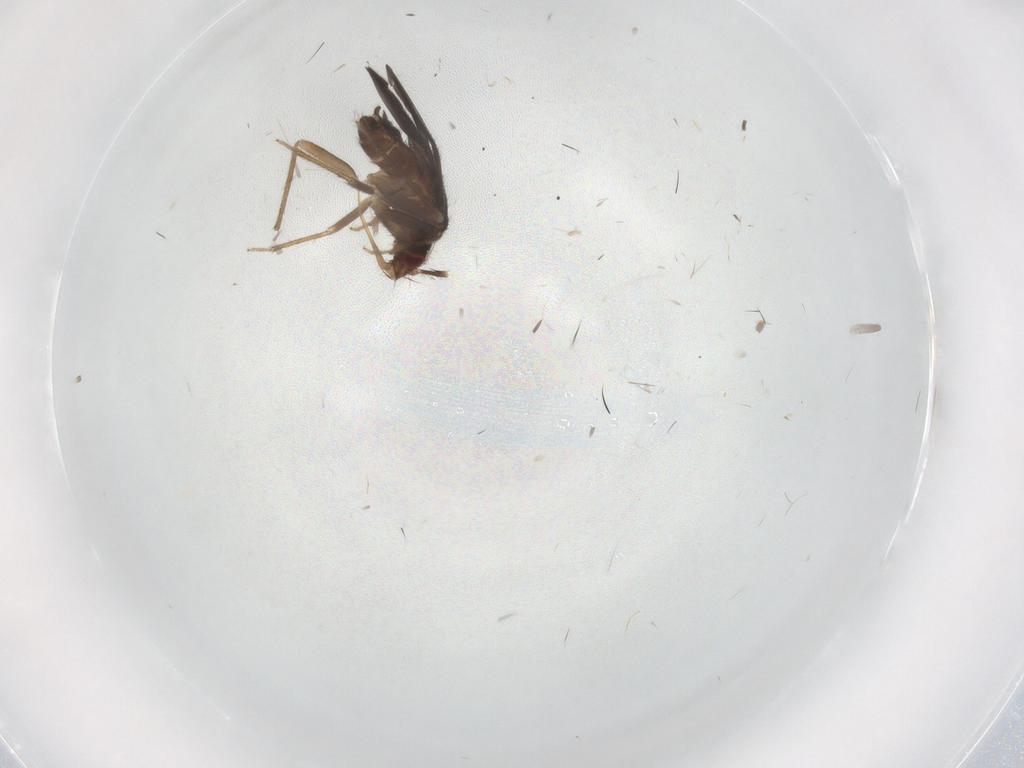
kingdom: Animalia
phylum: Arthropoda
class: Insecta
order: Hemiptera
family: Ceratocombidae
